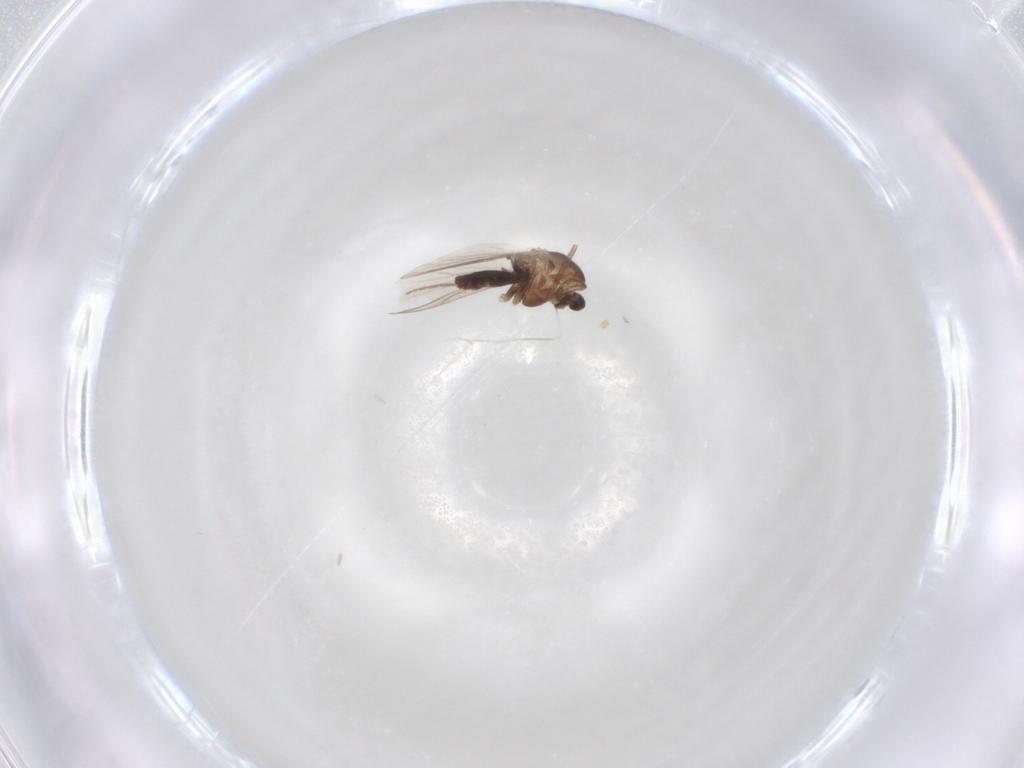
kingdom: Animalia
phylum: Arthropoda
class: Insecta
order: Diptera
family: Chironomidae
